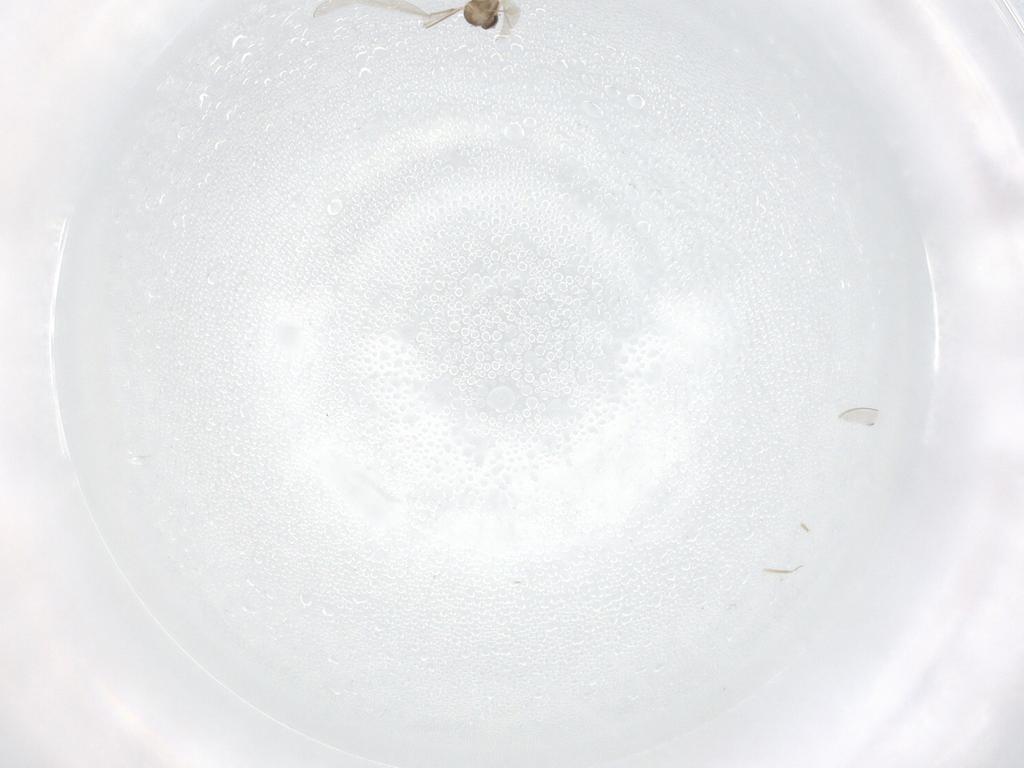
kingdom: Animalia
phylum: Arthropoda
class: Insecta
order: Diptera
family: Cecidomyiidae
